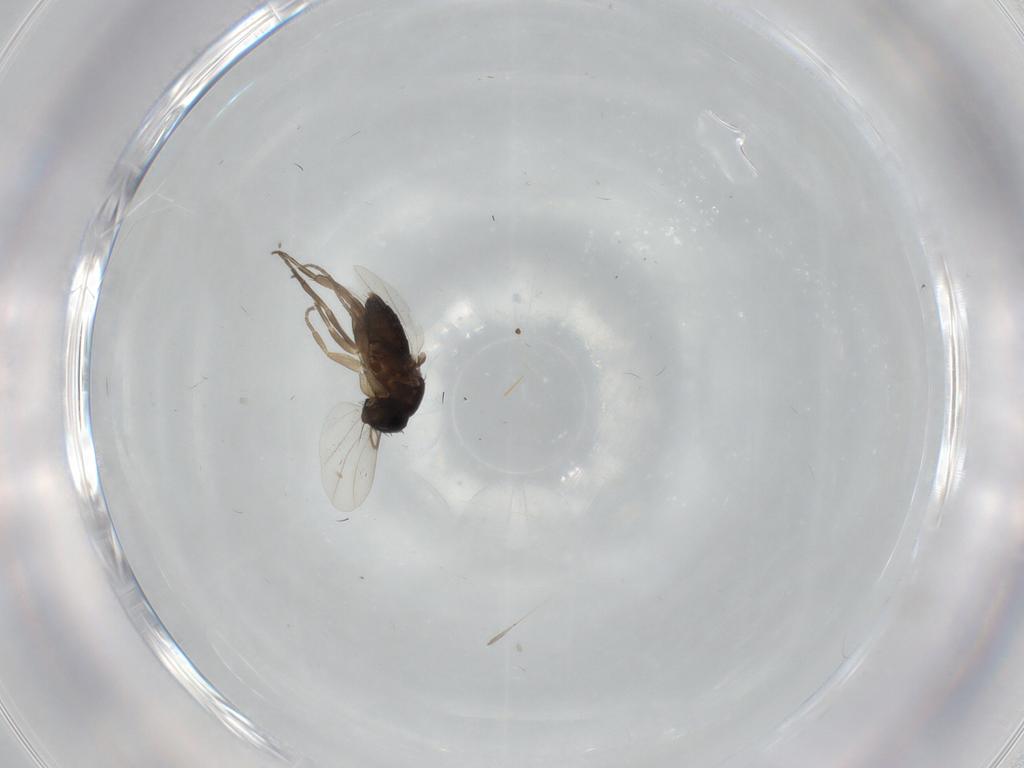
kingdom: Animalia
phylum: Arthropoda
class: Insecta
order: Diptera
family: Phoridae
